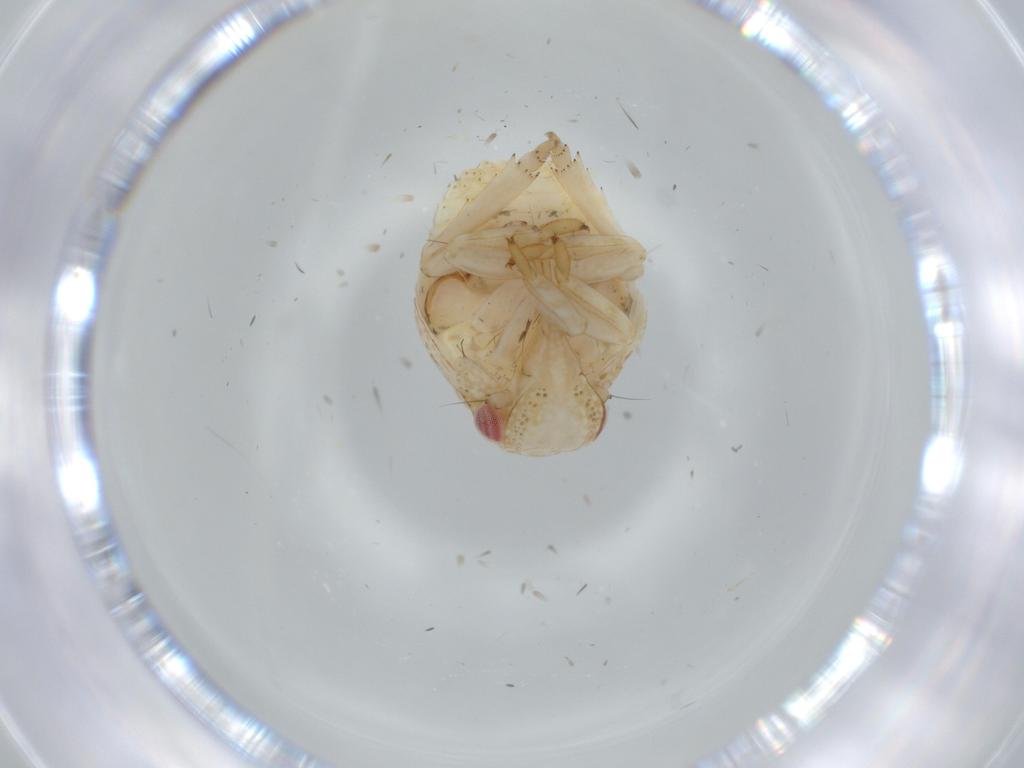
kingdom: Animalia
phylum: Arthropoda
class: Insecta
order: Hemiptera
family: Acanaloniidae
